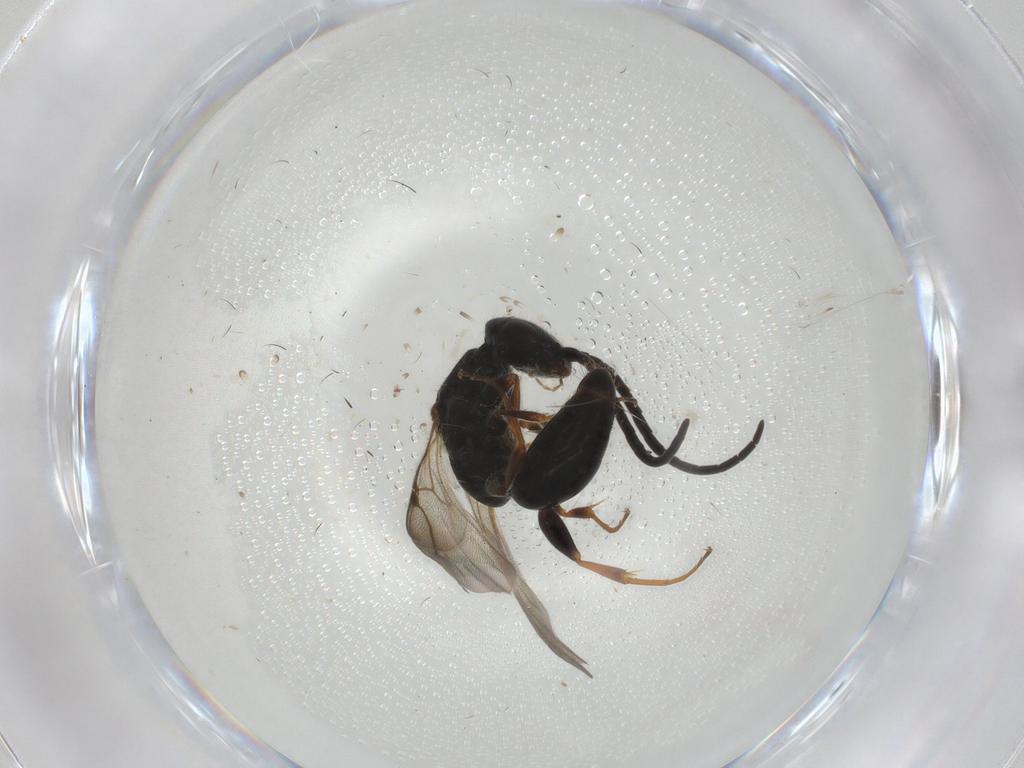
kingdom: Animalia
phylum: Arthropoda
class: Insecta
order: Hymenoptera
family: Bethylidae
